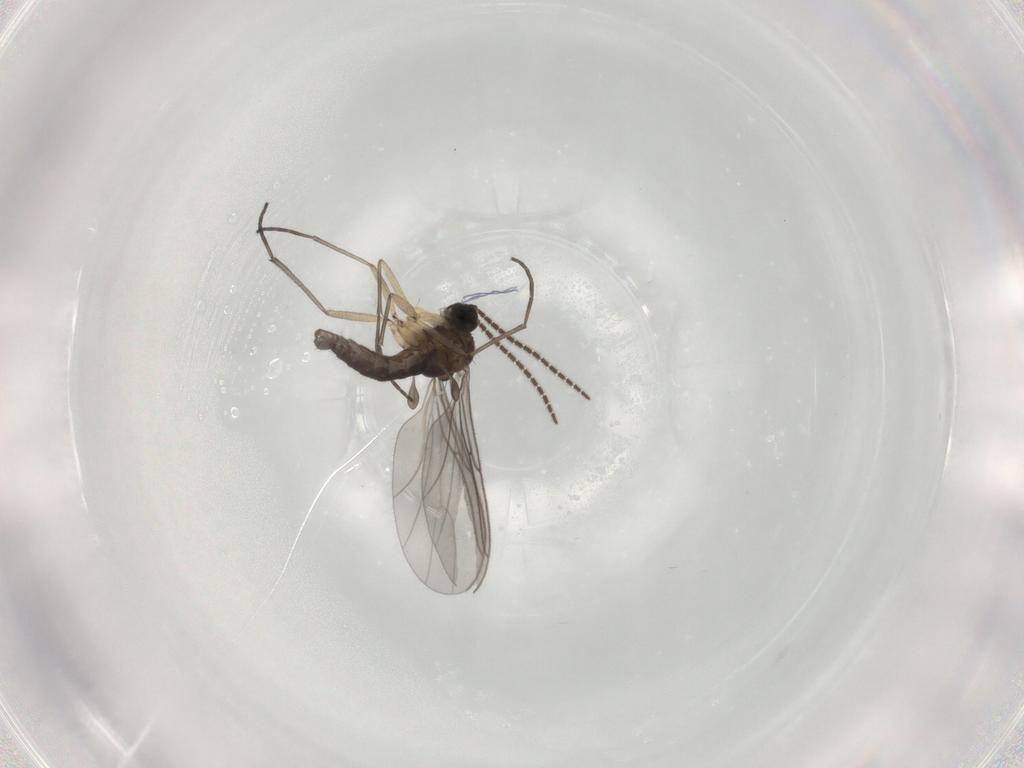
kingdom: Animalia
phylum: Arthropoda
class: Insecta
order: Diptera
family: Sciaridae
